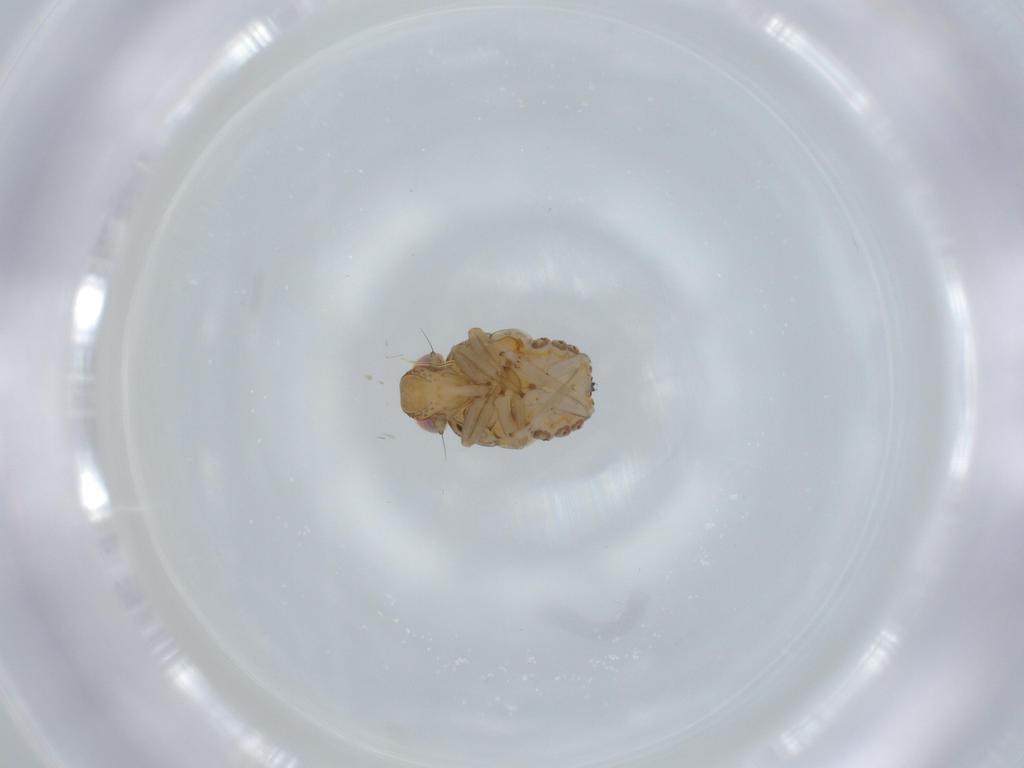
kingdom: Animalia
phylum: Arthropoda
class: Insecta
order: Hemiptera
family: Issidae
